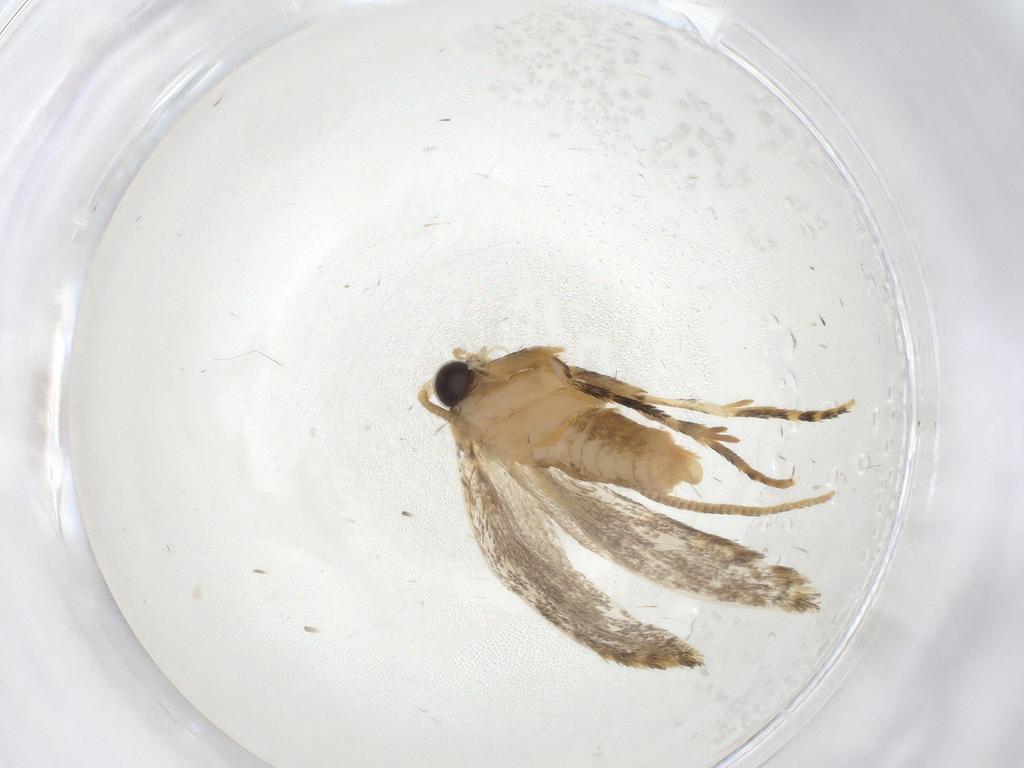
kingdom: Animalia
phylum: Arthropoda
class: Insecta
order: Lepidoptera
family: Tineidae
